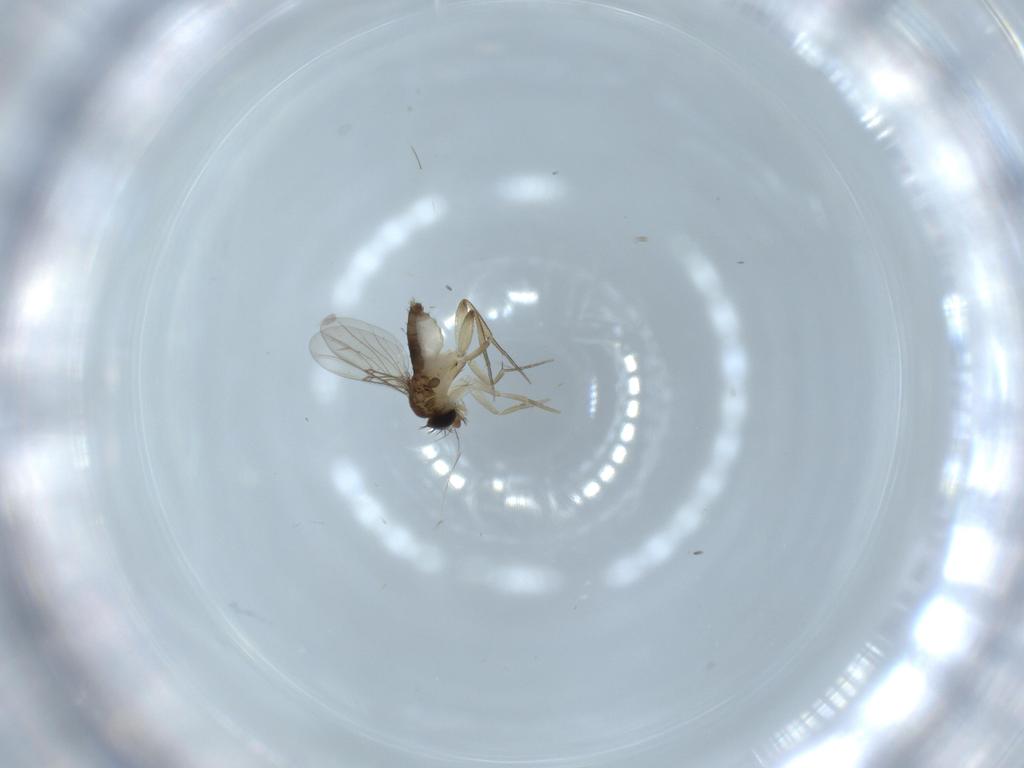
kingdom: Animalia
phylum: Arthropoda
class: Insecta
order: Diptera
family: Phoridae
